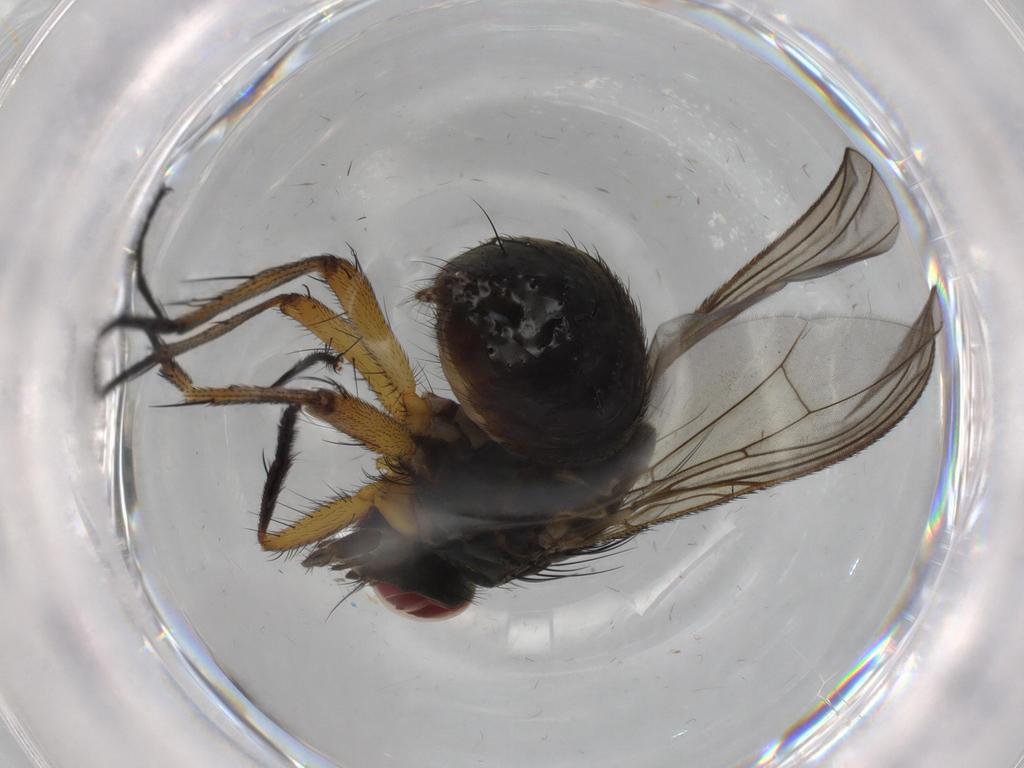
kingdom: Animalia
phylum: Arthropoda
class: Insecta
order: Diptera
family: Muscidae
